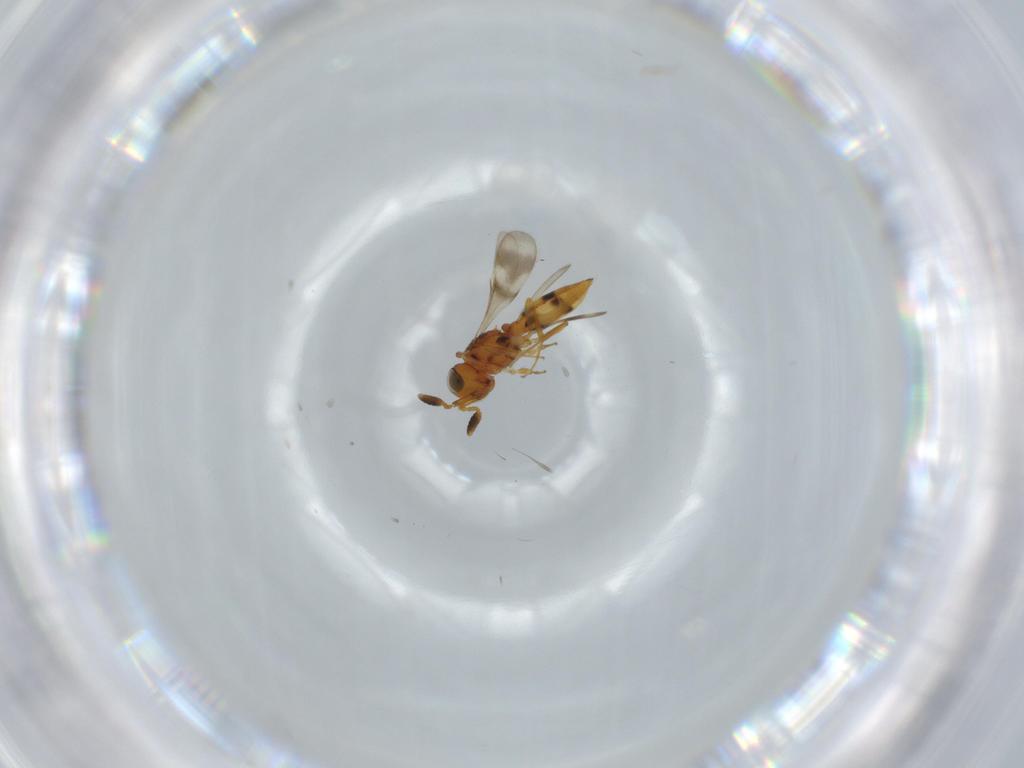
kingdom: Animalia
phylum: Arthropoda
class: Insecta
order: Hymenoptera
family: Scelionidae
